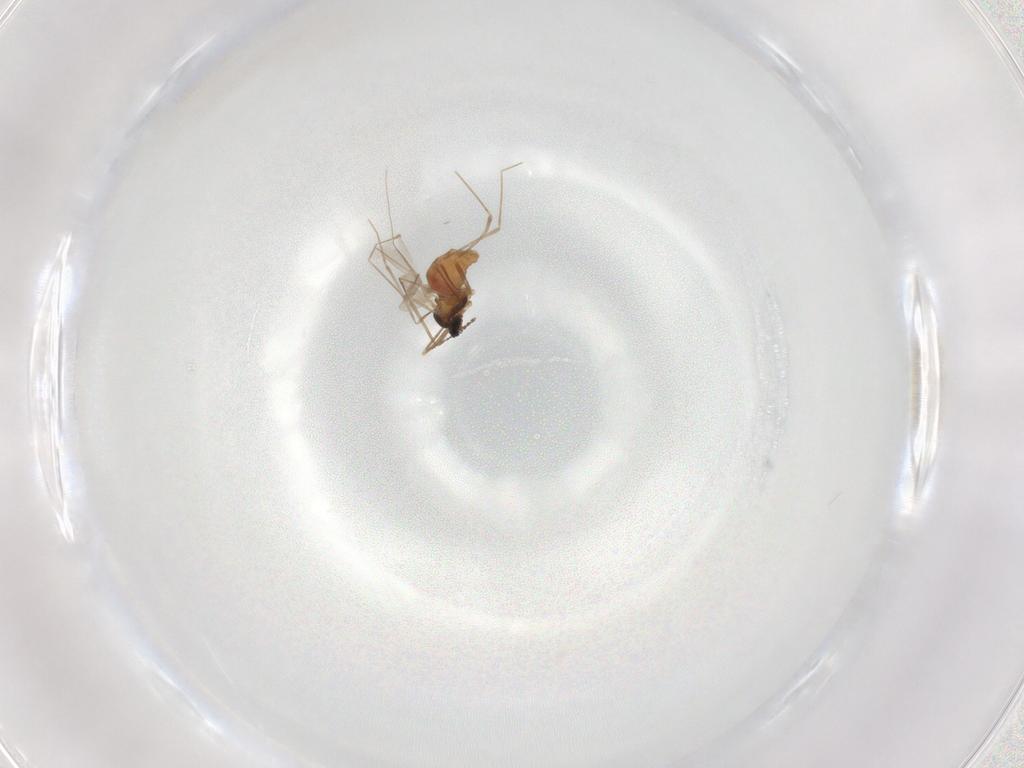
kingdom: Animalia
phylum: Arthropoda
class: Insecta
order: Diptera
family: Cecidomyiidae
